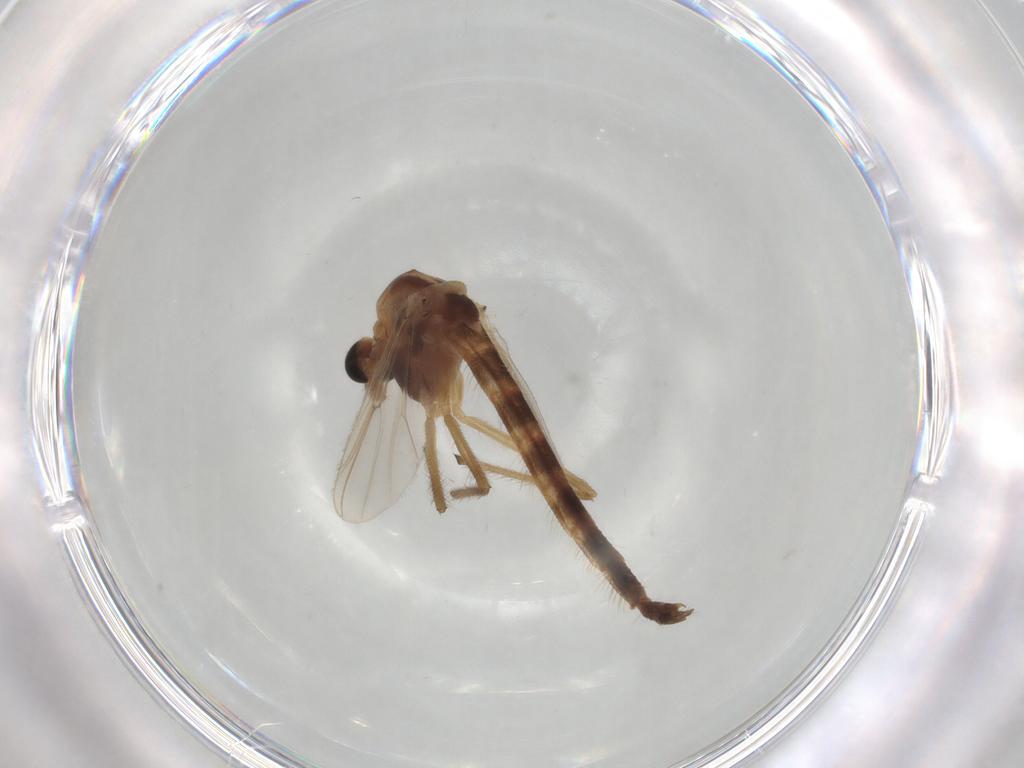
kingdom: Animalia
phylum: Arthropoda
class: Insecta
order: Diptera
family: Chironomidae
